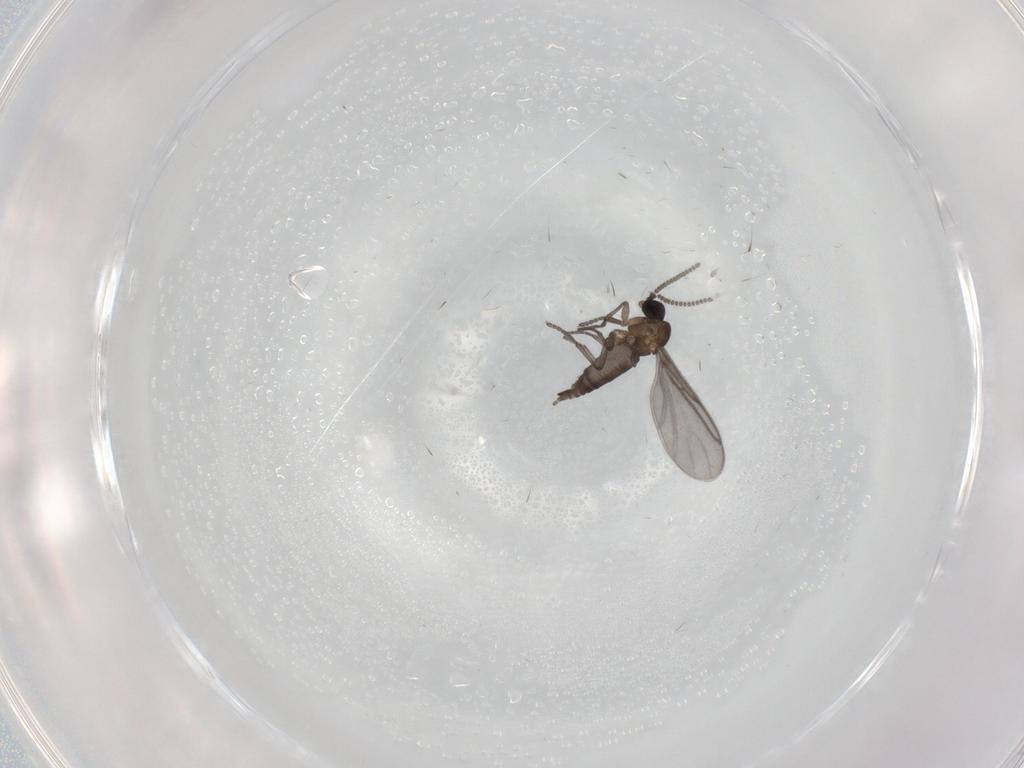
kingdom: Animalia
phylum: Arthropoda
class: Insecta
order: Diptera
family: Sciaridae
